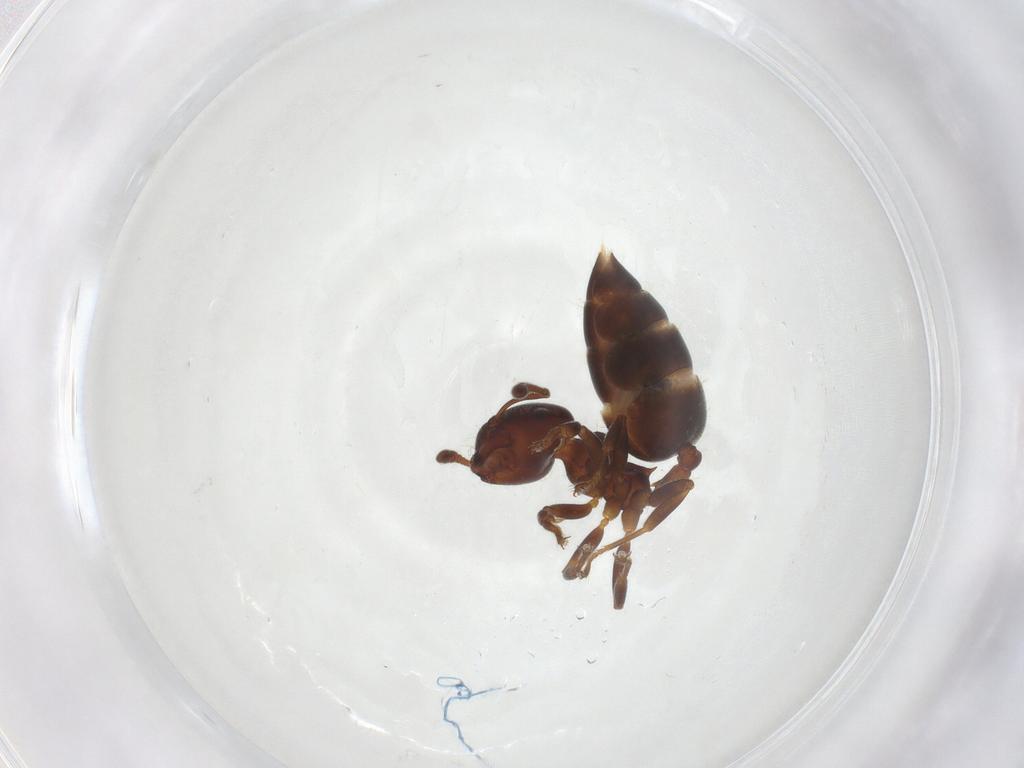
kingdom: Animalia
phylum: Arthropoda
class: Insecta
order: Hymenoptera
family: Formicidae
